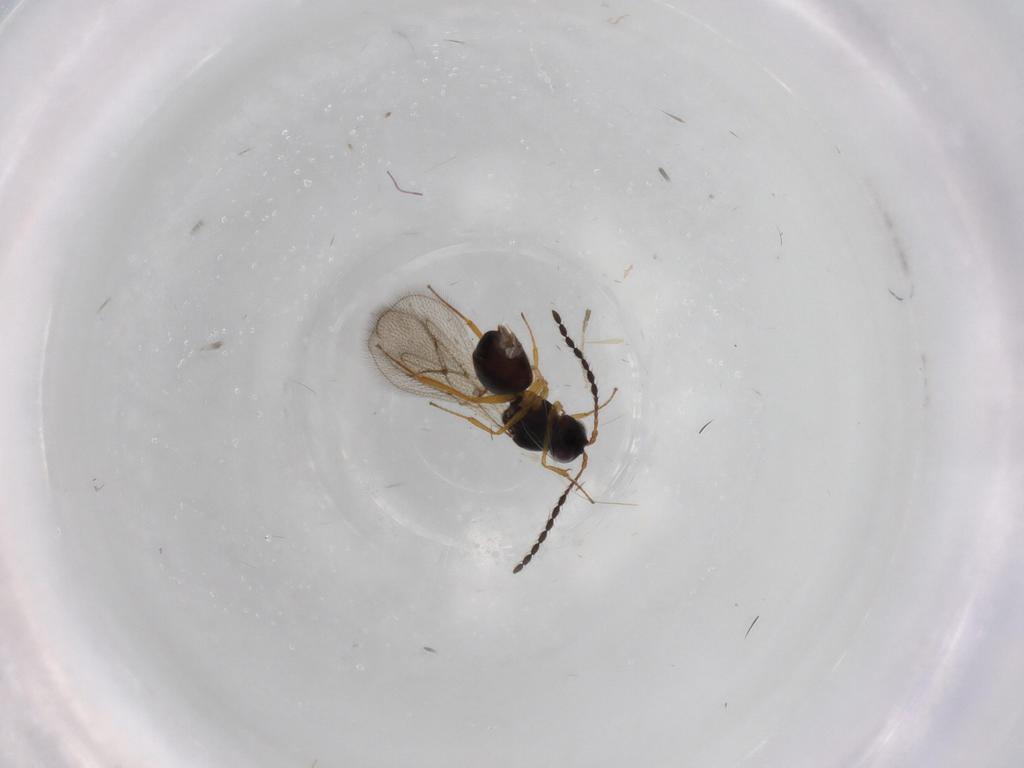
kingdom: Animalia
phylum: Arthropoda
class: Insecta
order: Hymenoptera
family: Figitidae
